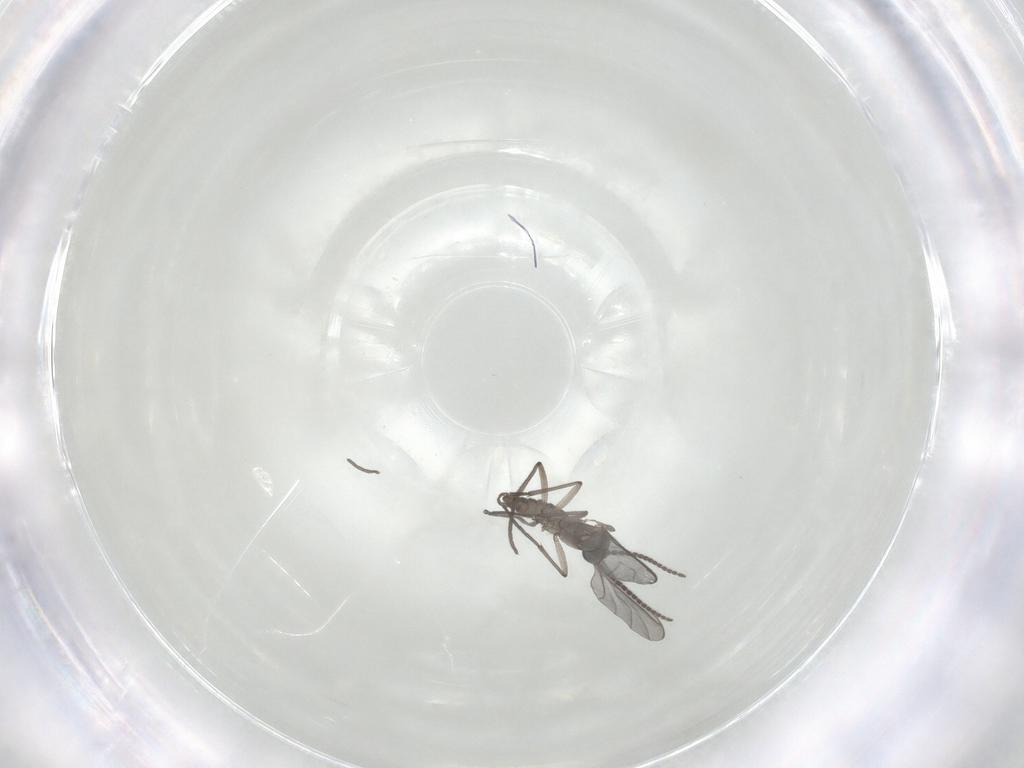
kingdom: Animalia
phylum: Arthropoda
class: Insecta
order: Diptera
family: Sciaridae
